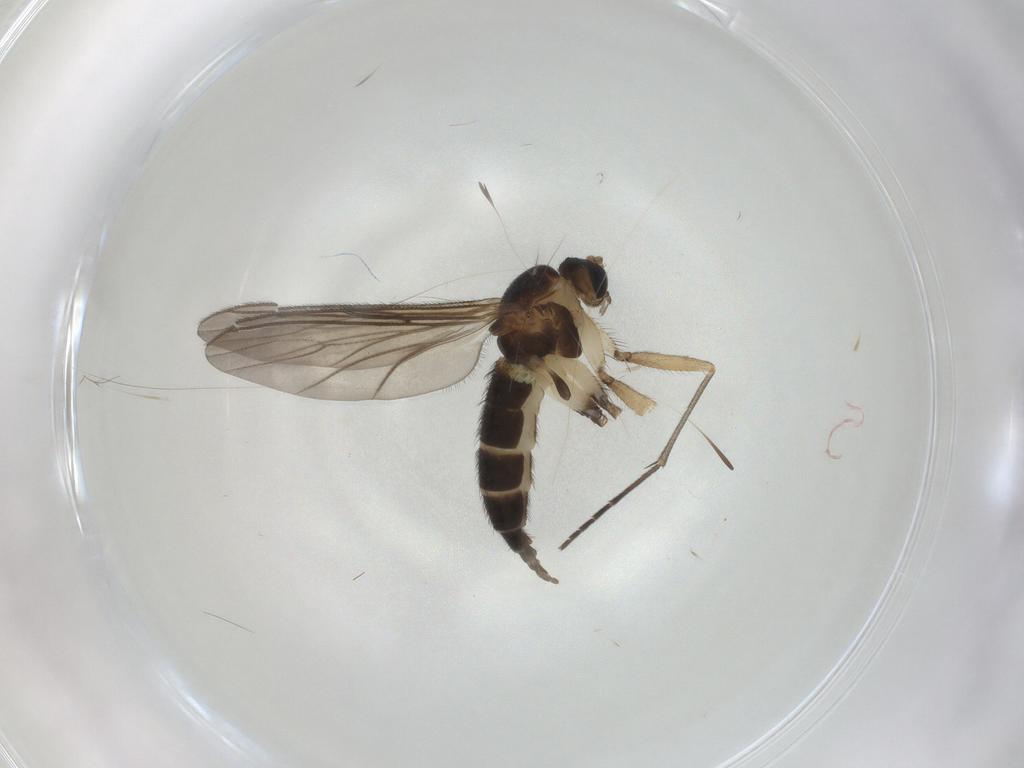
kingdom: Animalia
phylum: Arthropoda
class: Insecta
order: Diptera
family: Sciaridae
